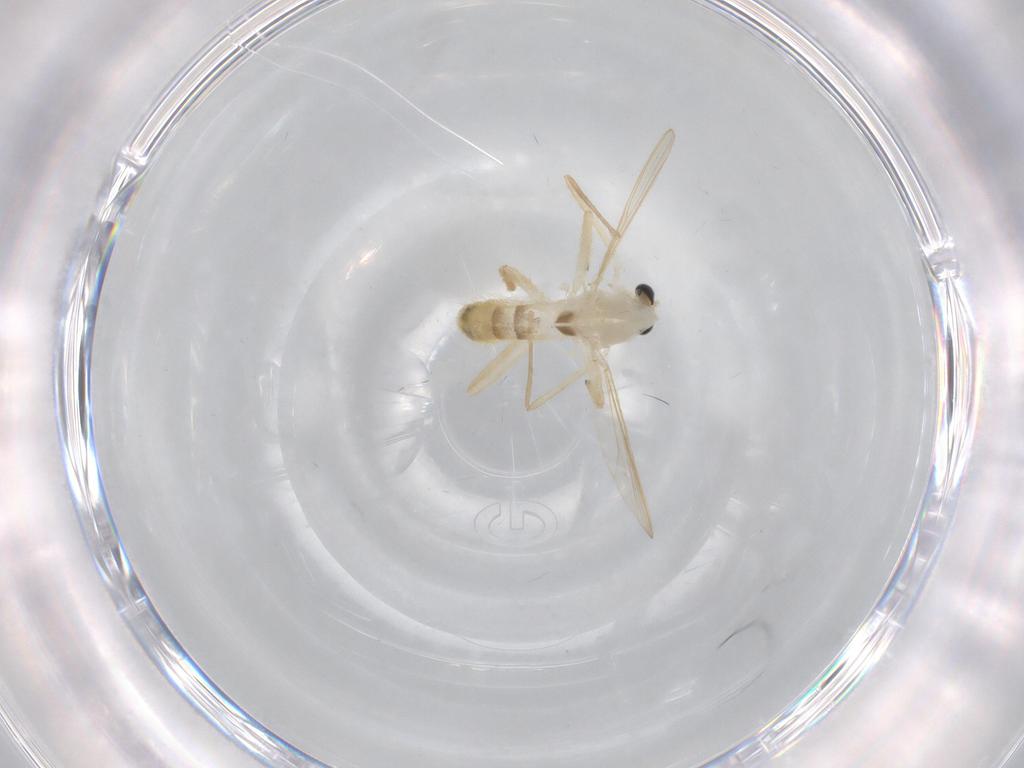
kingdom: Animalia
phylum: Arthropoda
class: Insecta
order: Diptera
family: Chironomidae
